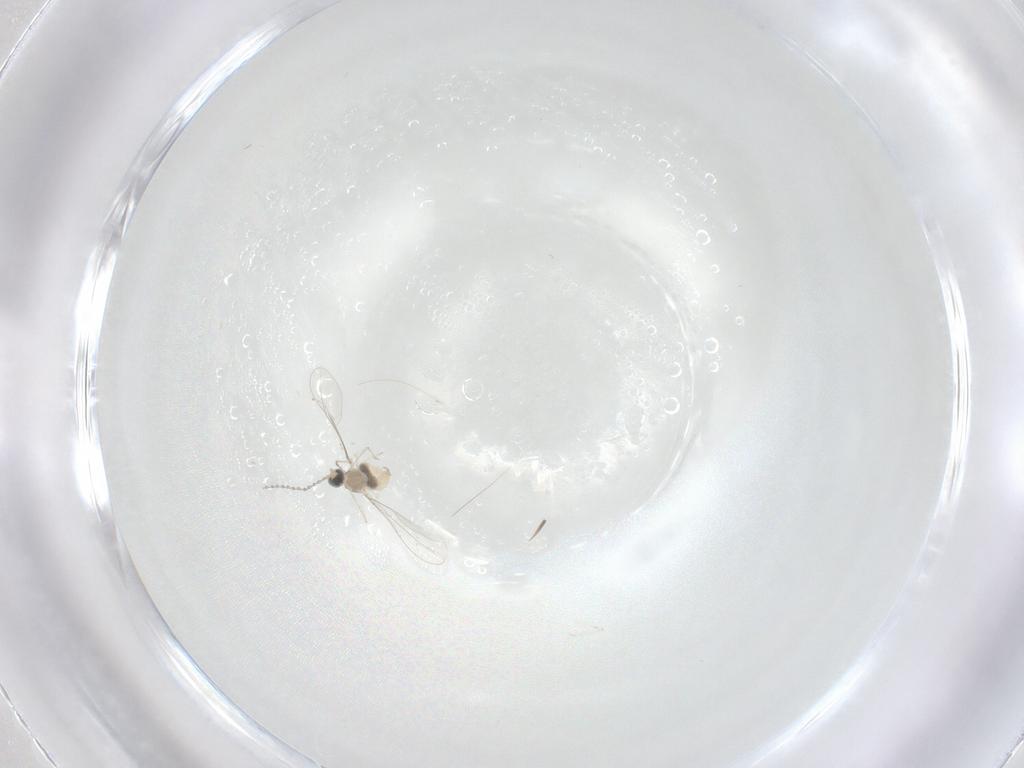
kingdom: Animalia
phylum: Arthropoda
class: Insecta
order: Diptera
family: Cecidomyiidae
